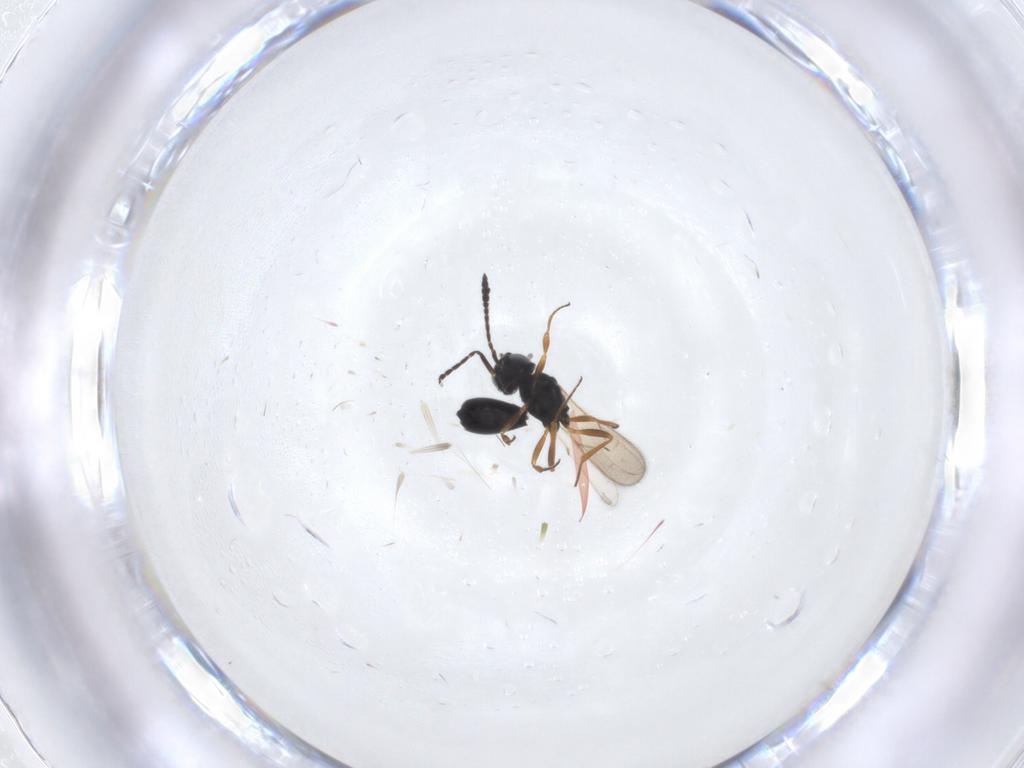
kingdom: Animalia
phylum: Arthropoda
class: Insecta
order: Hymenoptera
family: Scelionidae
